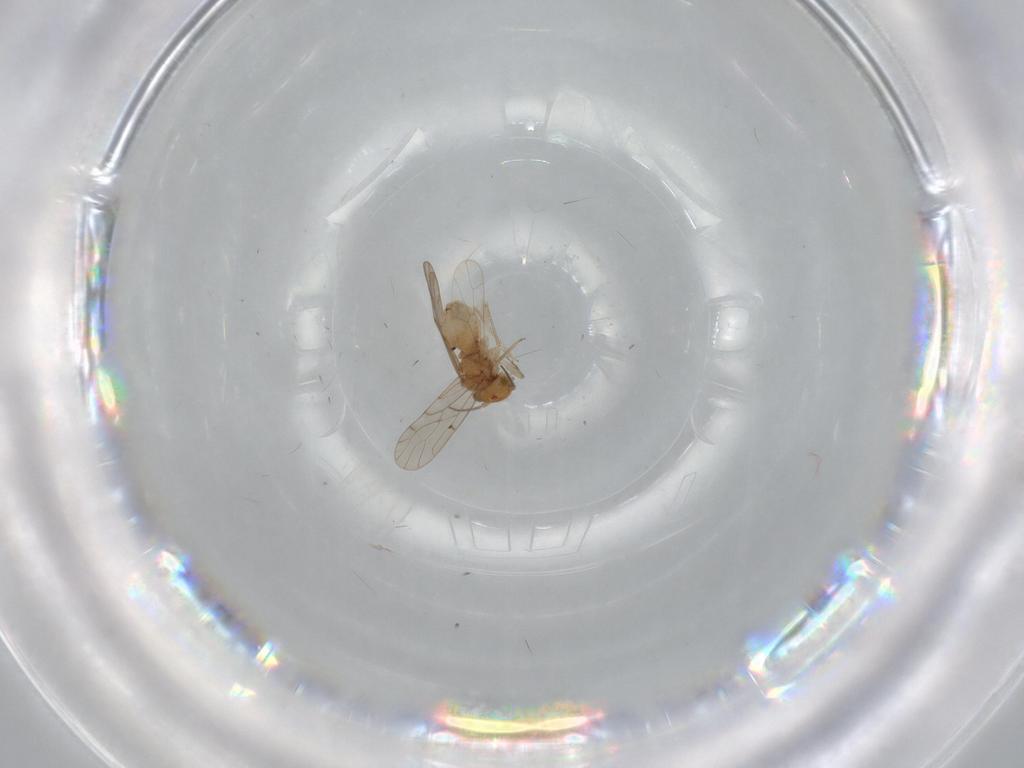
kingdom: Animalia
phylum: Arthropoda
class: Insecta
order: Psocodea
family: Ectopsocidae
